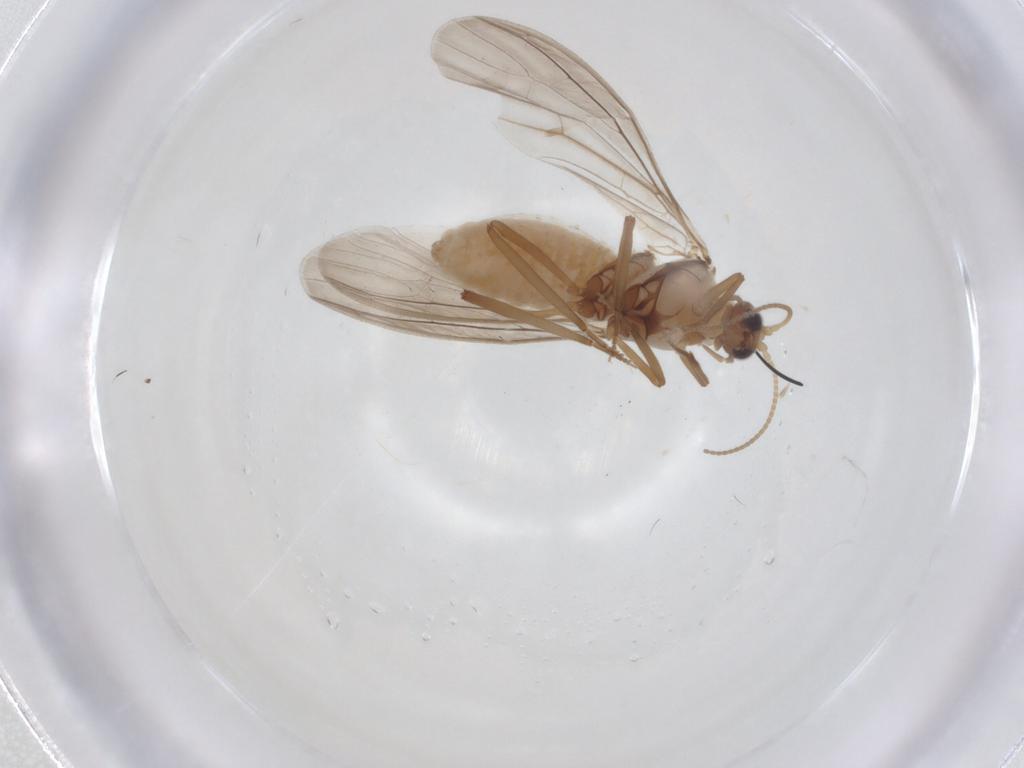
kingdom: Animalia
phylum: Arthropoda
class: Insecta
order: Neuroptera
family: Coniopterygidae
